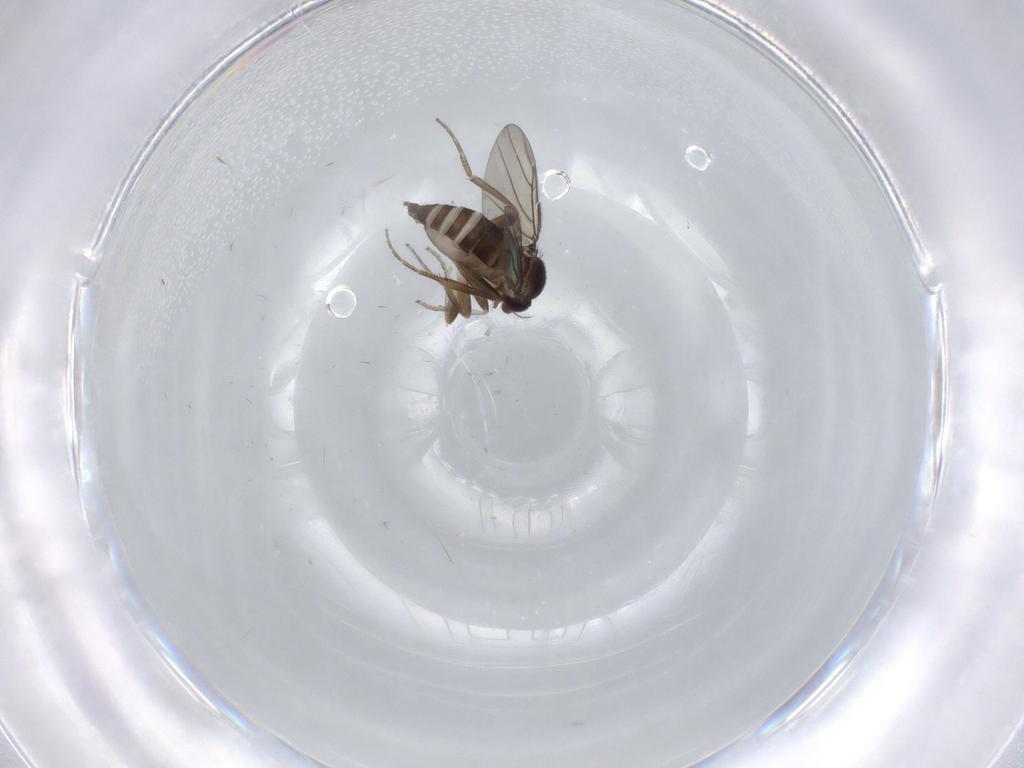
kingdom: Animalia
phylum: Arthropoda
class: Insecta
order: Diptera
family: Phoridae
